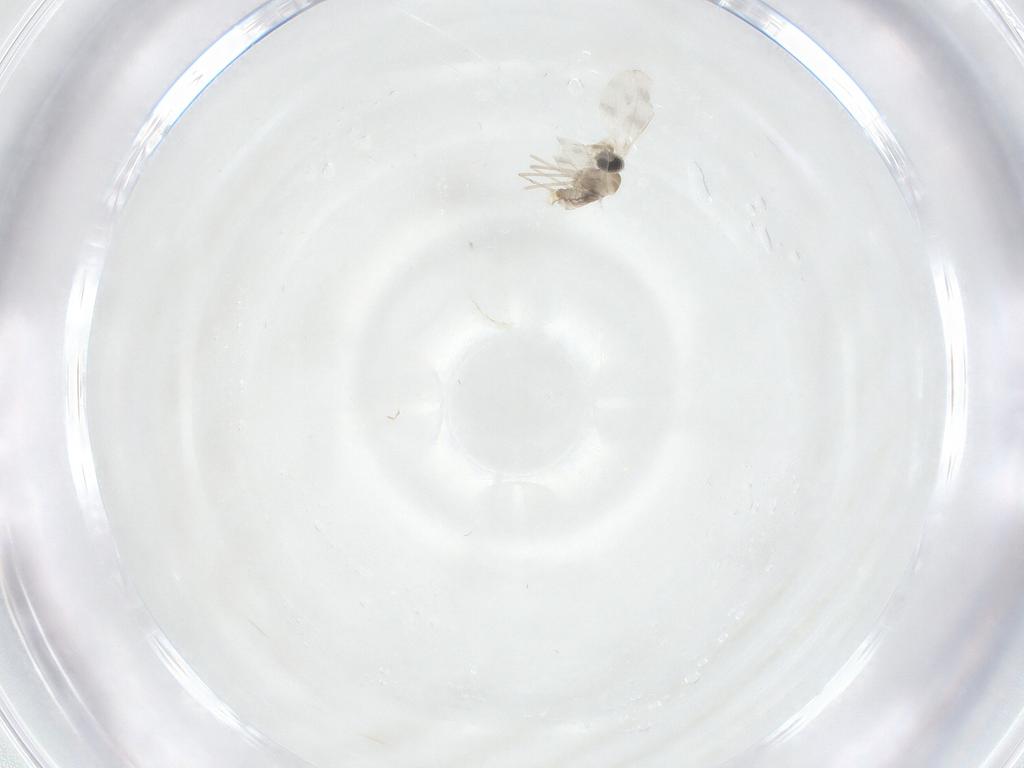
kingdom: Animalia
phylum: Arthropoda
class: Insecta
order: Diptera
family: Cecidomyiidae
